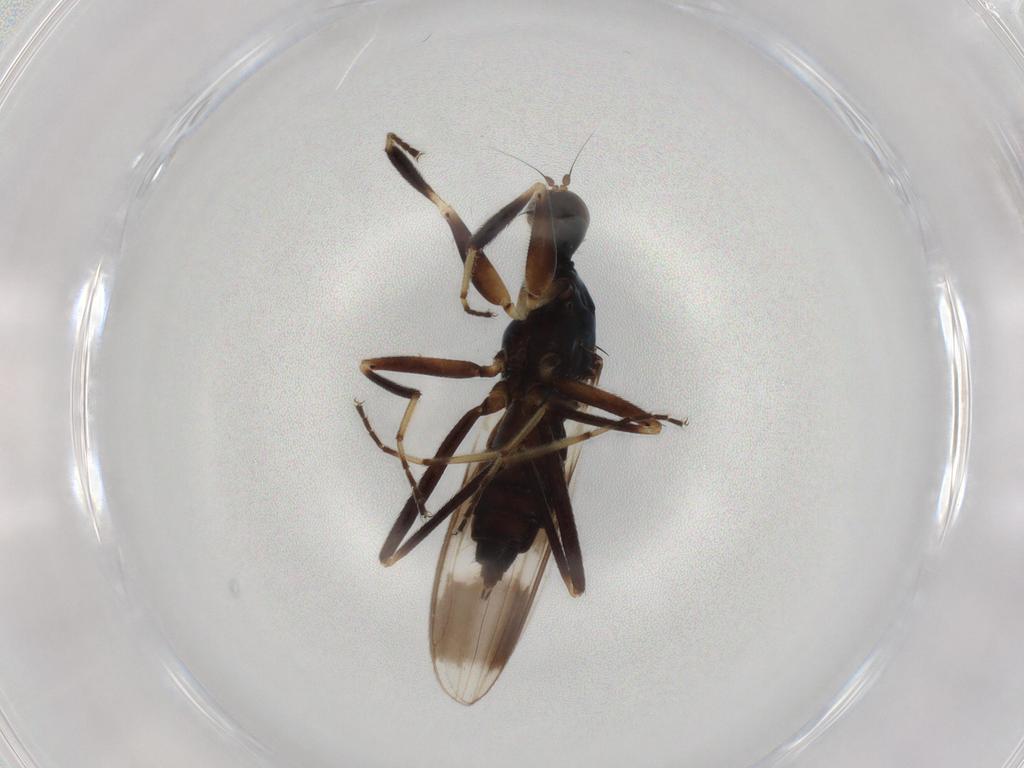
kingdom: Animalia
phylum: Arthropoda
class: Insecta
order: Diptera
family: Hybotidae
